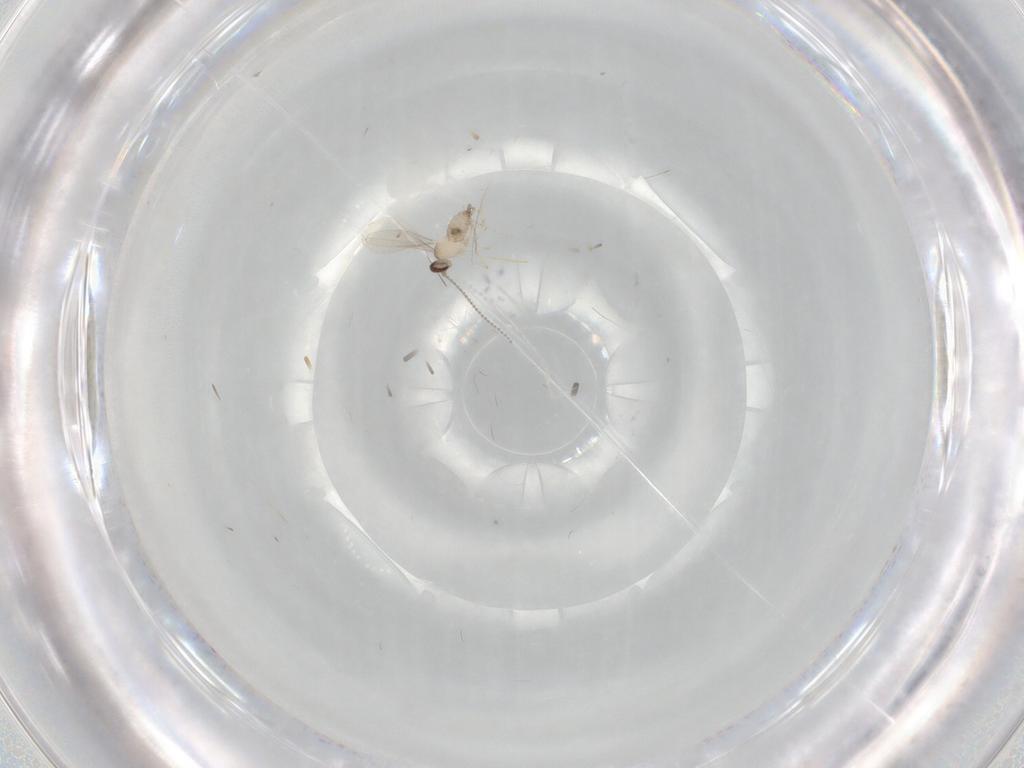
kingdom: Animalia
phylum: Arthropoda
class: Insecta
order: Diptera
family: Cecidomyiidae
